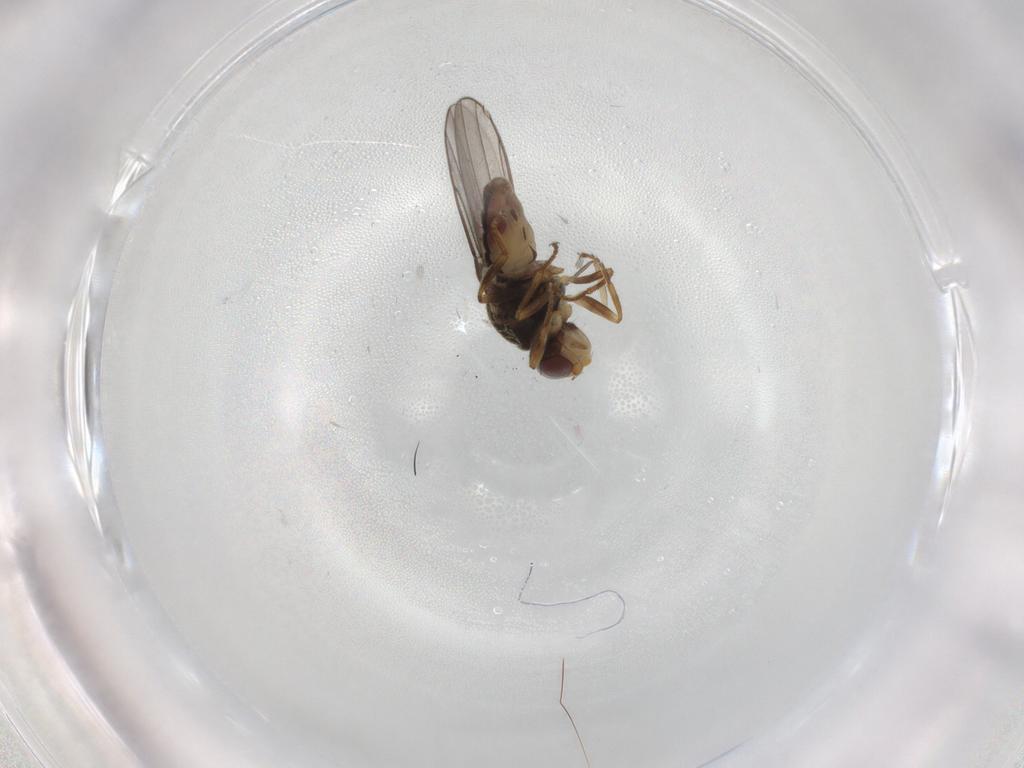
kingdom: Animalia
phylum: Arthropoda
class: Insecta
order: Diptera
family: Chloropidae
